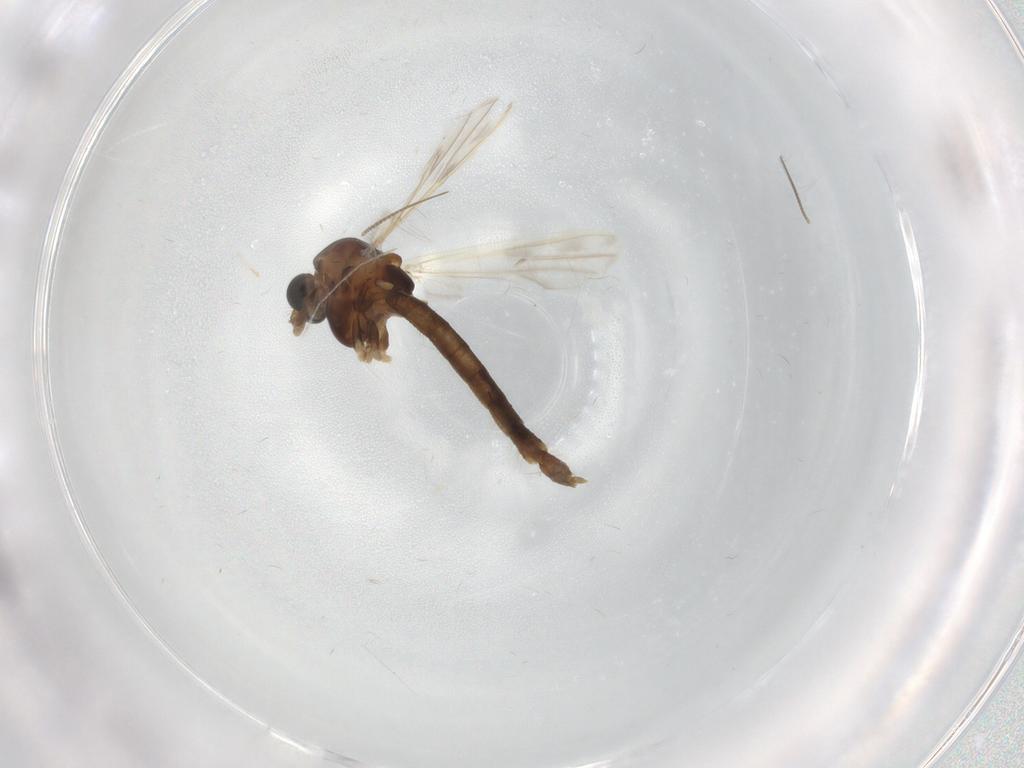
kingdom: Animalia
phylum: Arthropoda
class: Insecta
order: Diptera
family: Chironomidae
